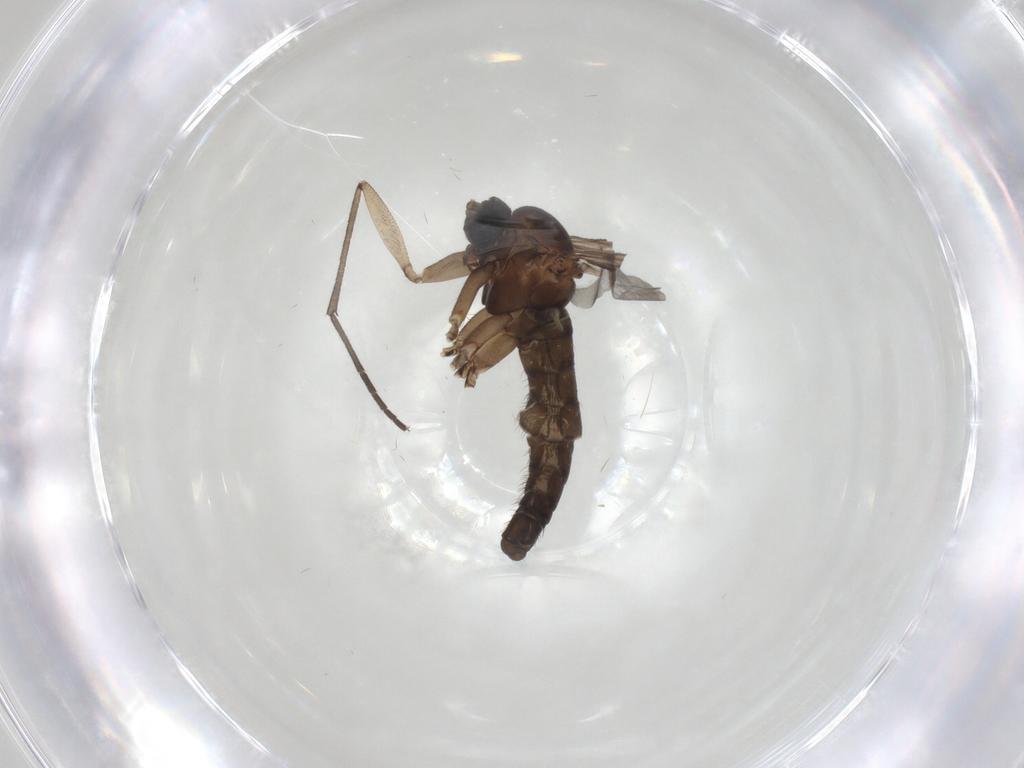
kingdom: Animalia
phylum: Arthropoda
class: Insecta
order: Diptera
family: Sciaridae
